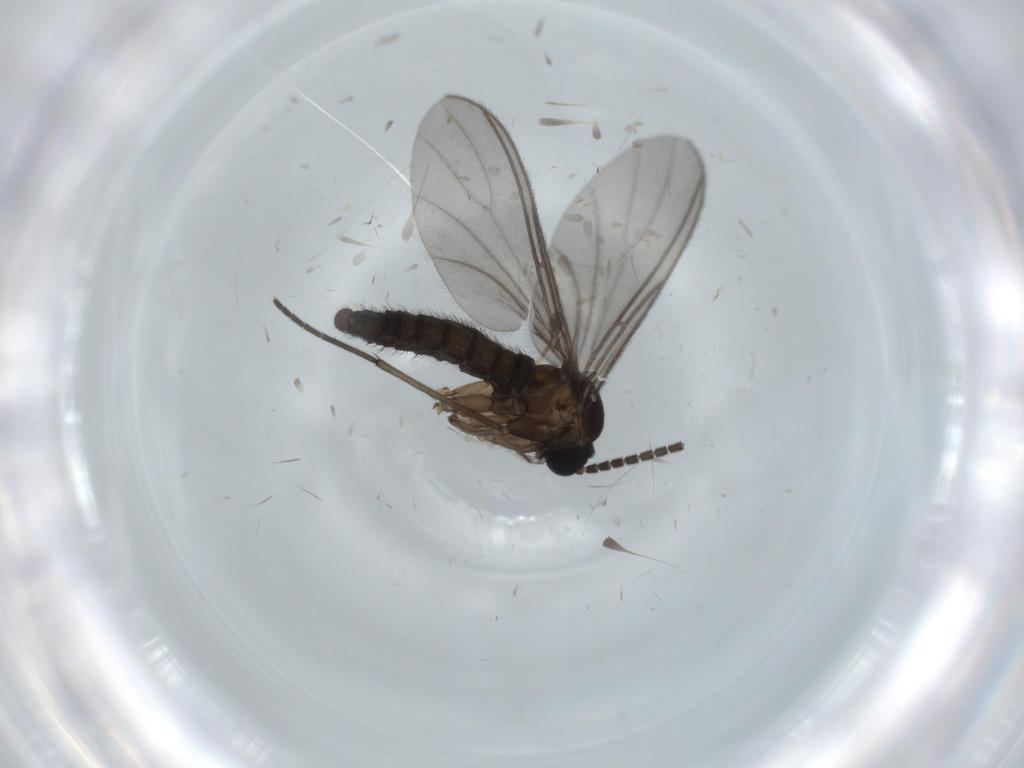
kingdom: Animalia
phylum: Arthropoda
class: Insecta
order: Diptera
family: Sciaridae
